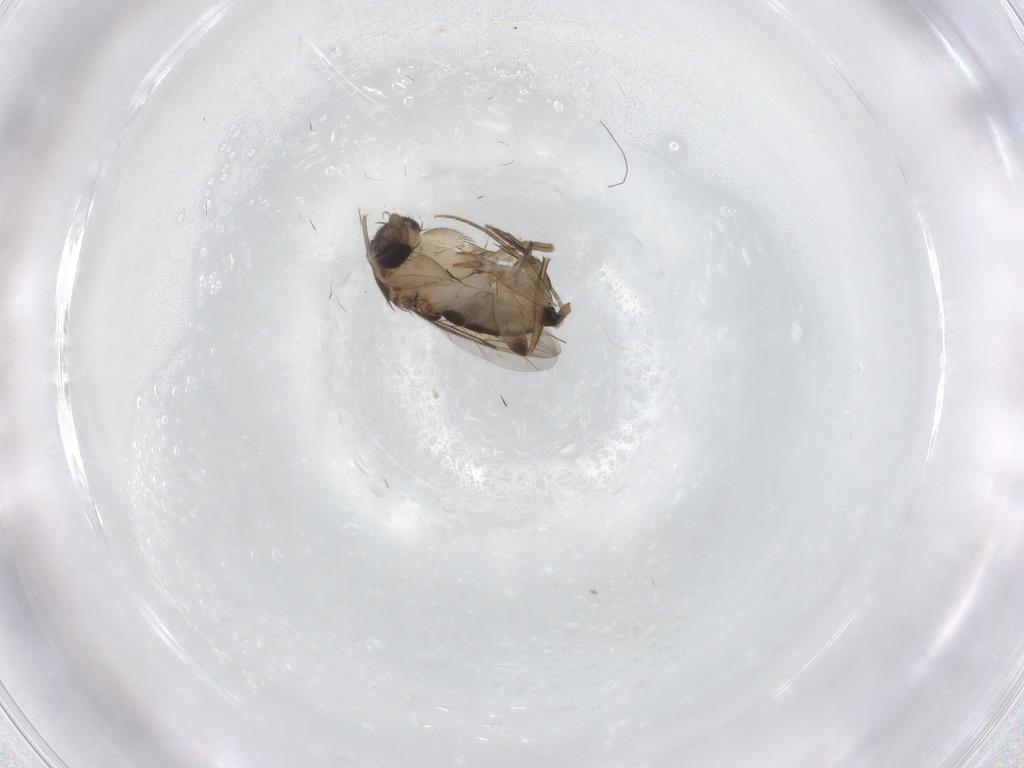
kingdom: Animalia
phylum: Arthropoda
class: Insecta
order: Diptera
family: Phoridae
